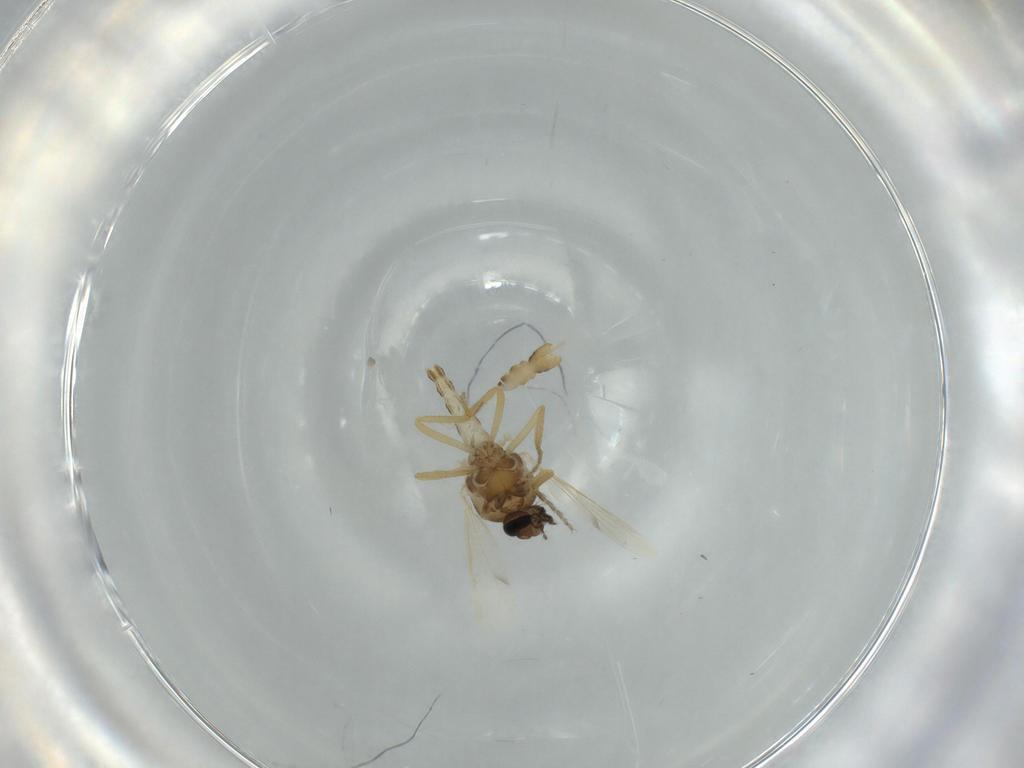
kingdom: Animalia
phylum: Arthropoda
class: Insecta
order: Diptera
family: Ceratopogonidae
